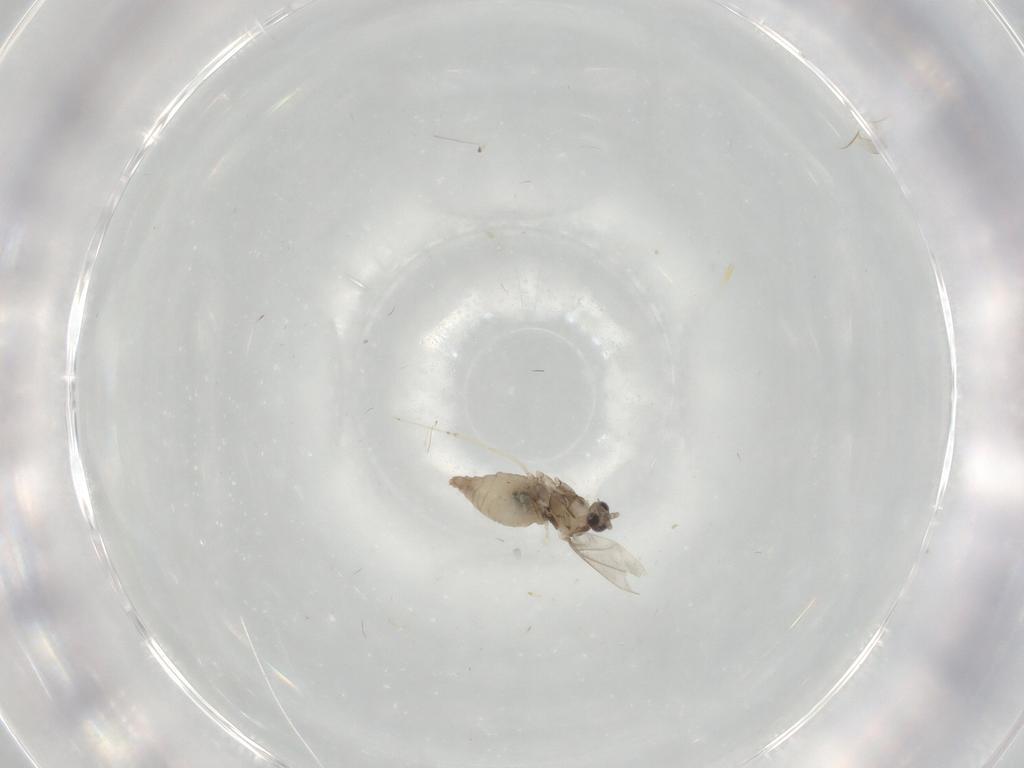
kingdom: Animalia
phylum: Arthropoda
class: Insecta
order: Diptera
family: Cecidomyiidae
